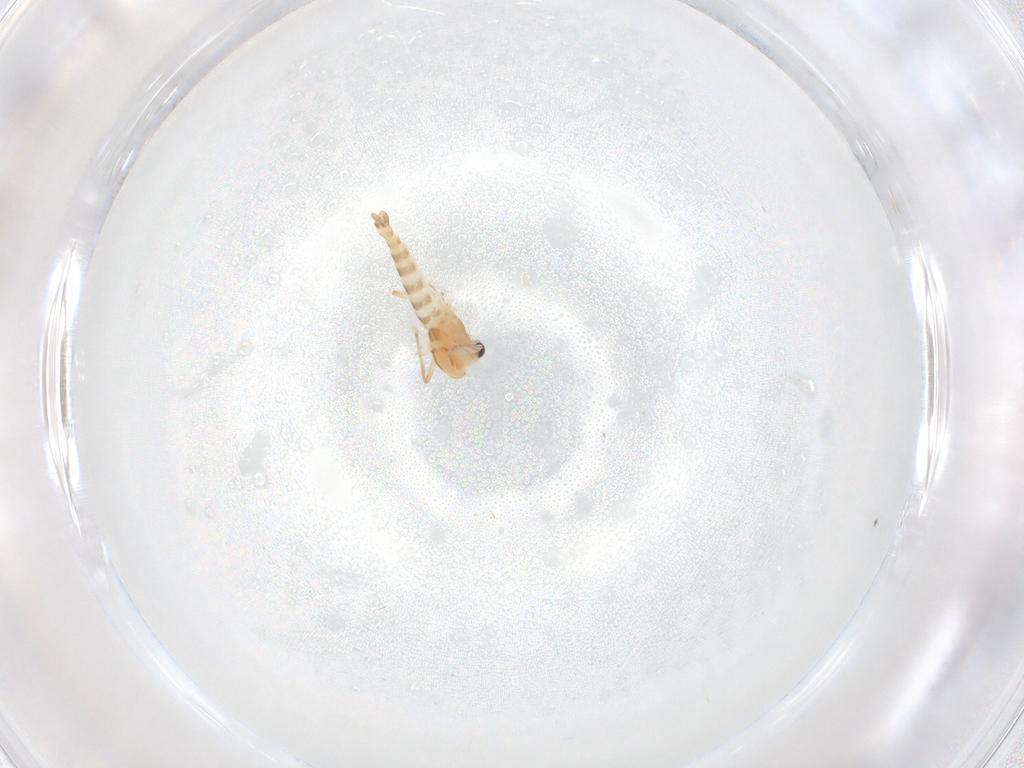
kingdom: Animalia
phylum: Arthropoda
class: Insecta
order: Diptera
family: Chironomidae
